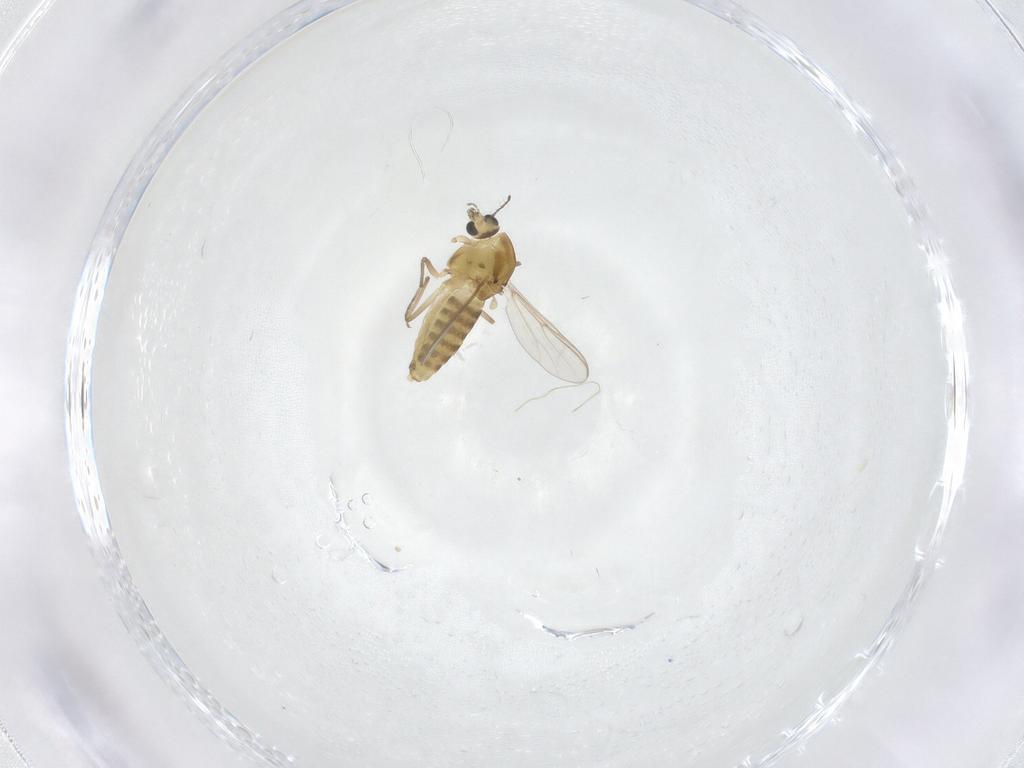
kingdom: Animalia
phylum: Arthropoda
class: Insecta
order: Diptera
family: Chironomidae
